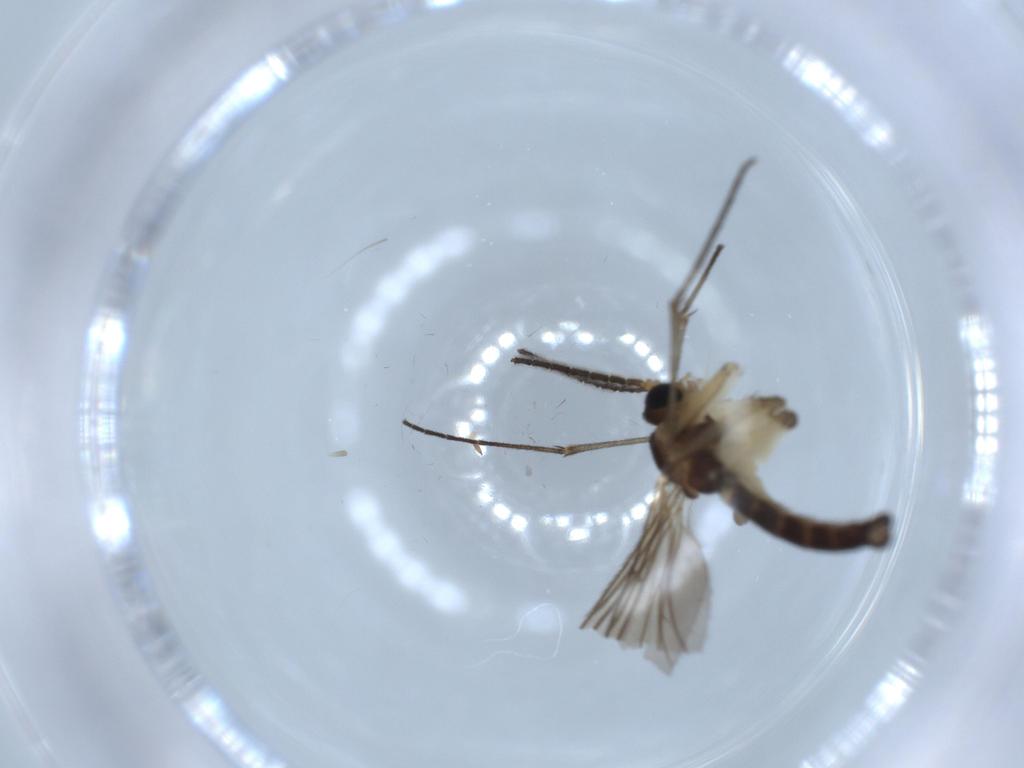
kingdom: Animalia
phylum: Arthropoda
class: Insecta
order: Diptera
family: Sciaridae
